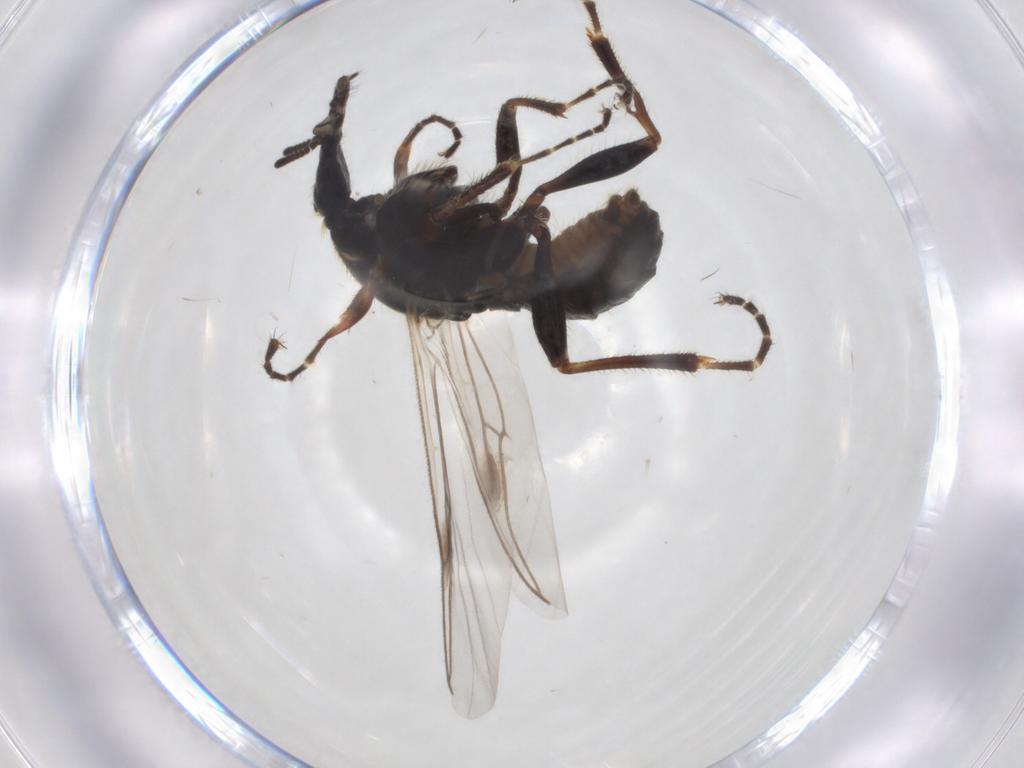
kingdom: Animalia
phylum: Arthropoda
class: Insecta
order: Diptera
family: Bibionidae
